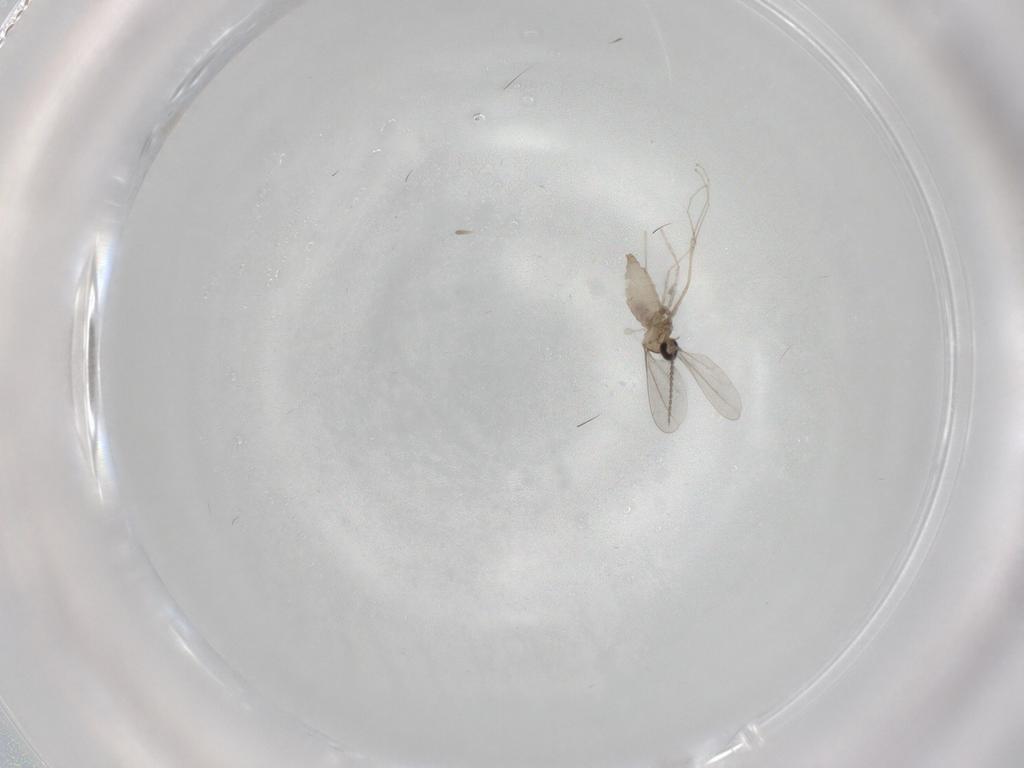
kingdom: Animalia
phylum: Arthropoda
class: Insecta
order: Diptera
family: Cecidomyiidae
